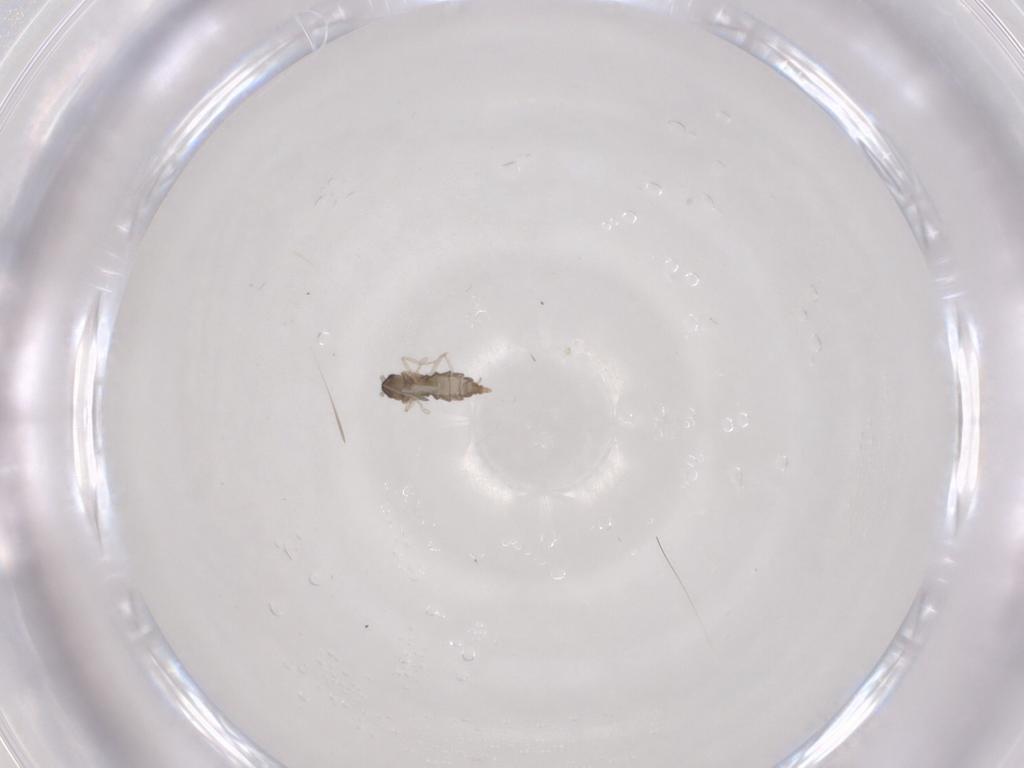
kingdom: Animalia
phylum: Arthropoda
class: Insecta
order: Diptera
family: Cecidomyiidae
